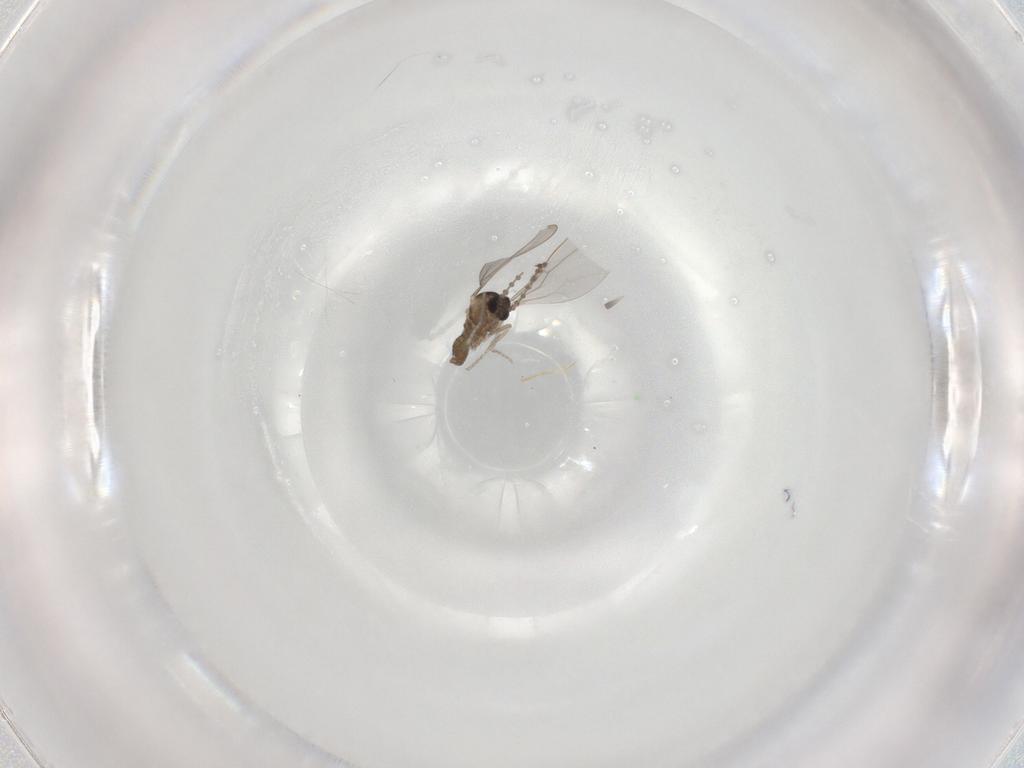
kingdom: Animalia
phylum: Arthropoda
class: Insecta
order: Diptera
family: Cecidomyiidae
